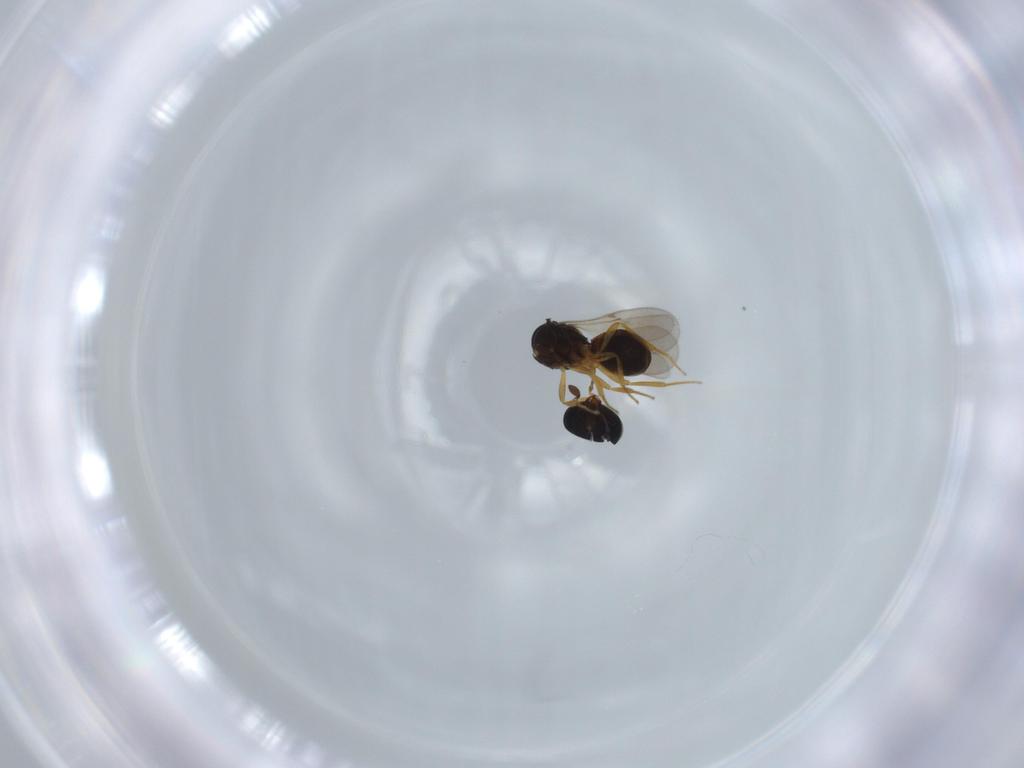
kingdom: Animalia
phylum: Arthropoda
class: Insecta
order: Hymenoptera
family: Scelionidae
